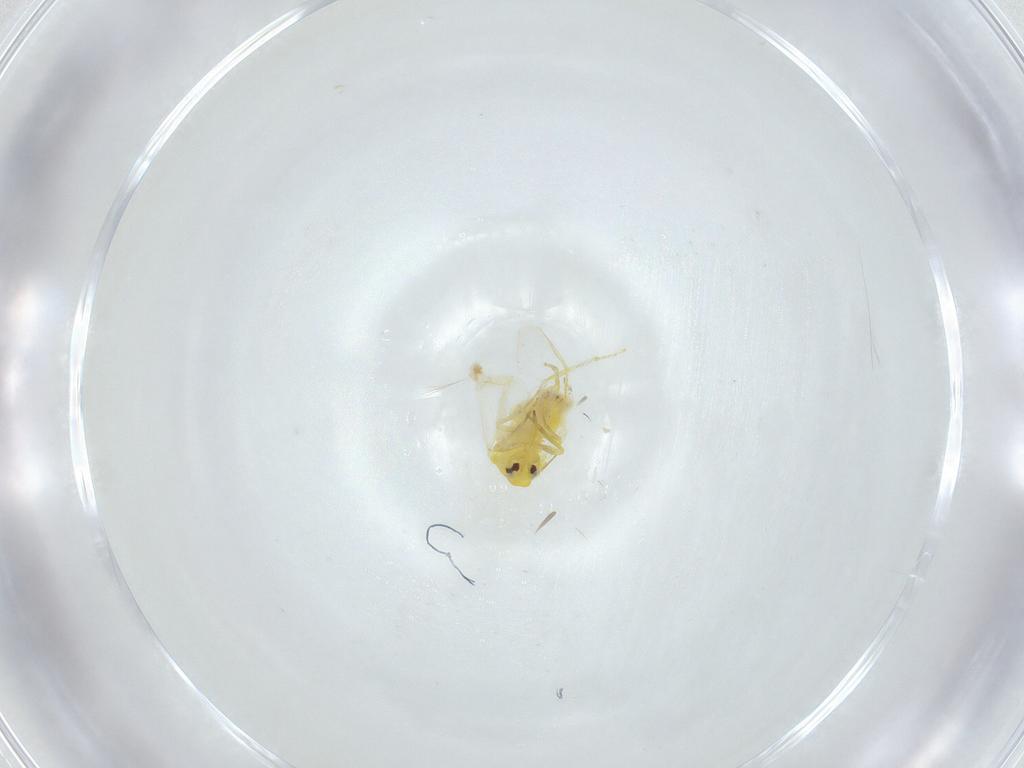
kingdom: Animalia
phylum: Arthropoda
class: Insecta
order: Hemiptera
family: Aleyrodidae
